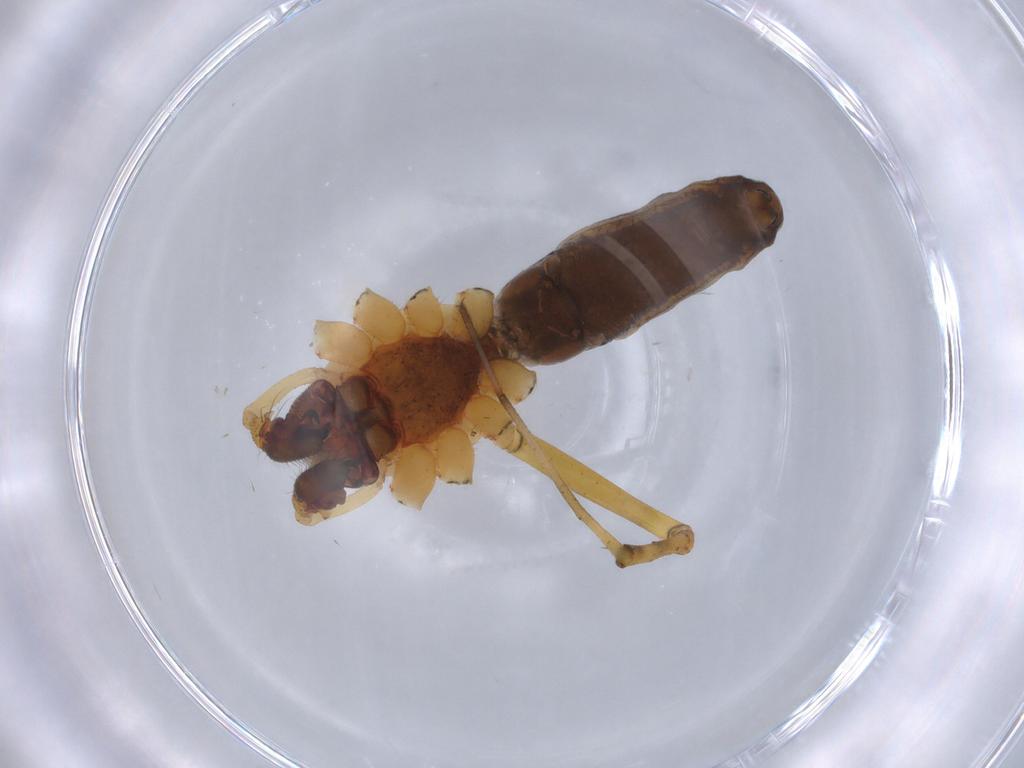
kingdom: Animalia
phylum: Arthropoda
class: Arachnida
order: Araneae
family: Linyphiidae
